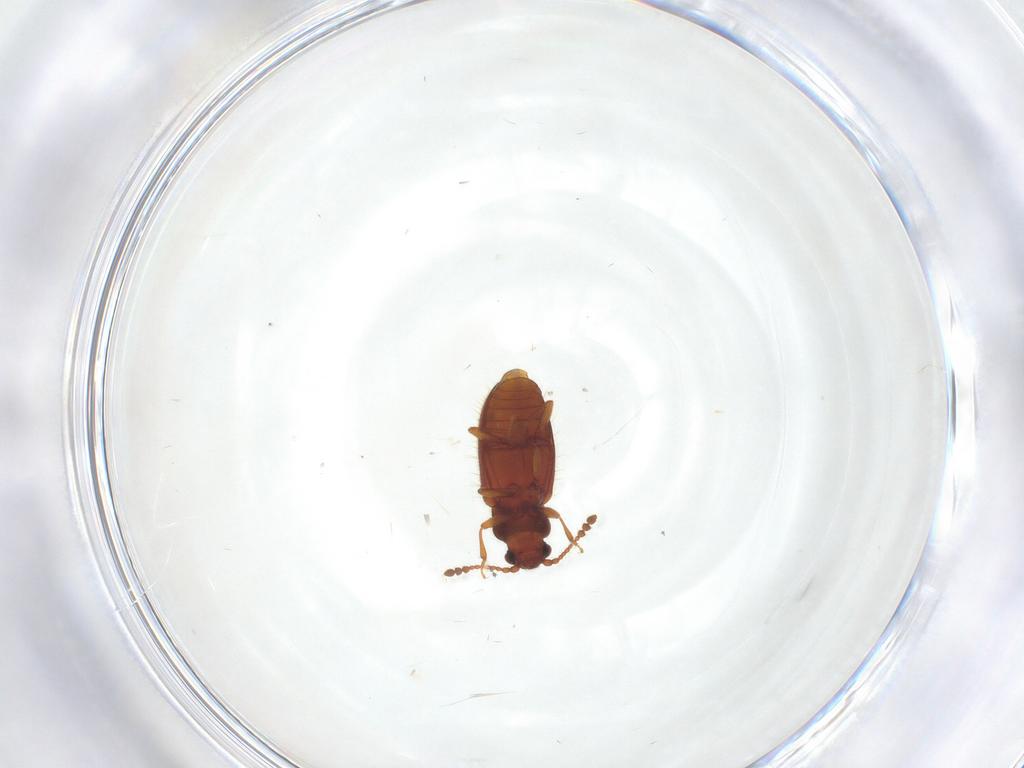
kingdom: Animalia
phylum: Arthropoda
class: Insecta
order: Coleoptera
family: Cryptophagidae
